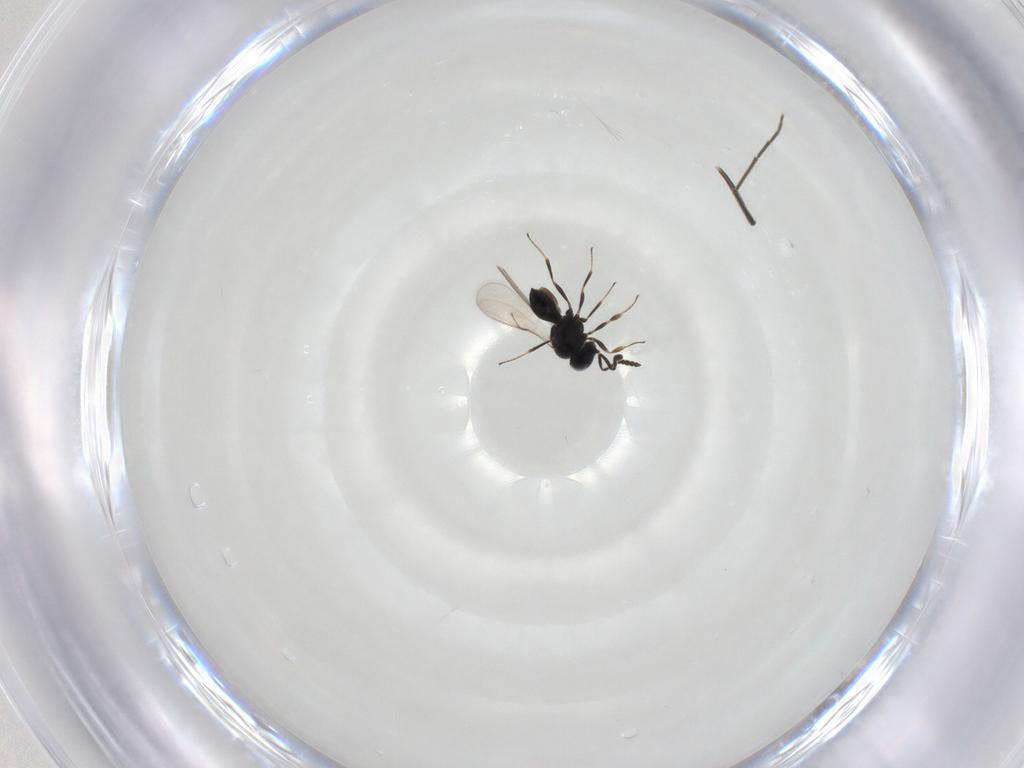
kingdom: Animalia
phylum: Arthropoda
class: Insecta
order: Hymenoptera
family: Scelionidae
